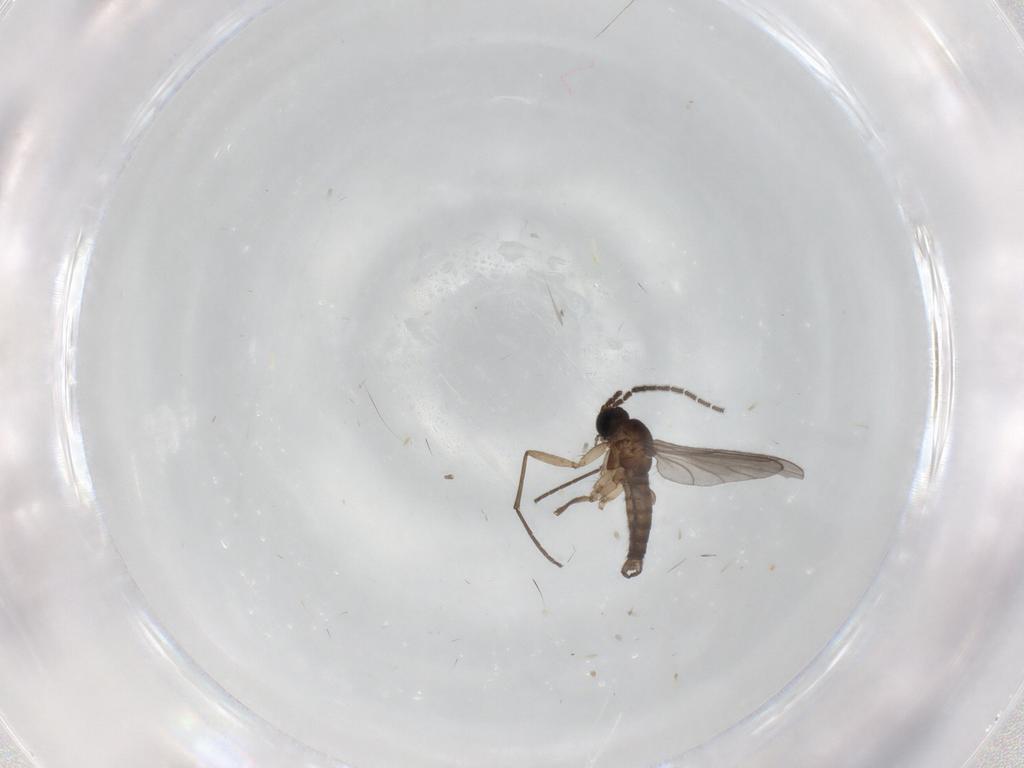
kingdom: Animalia
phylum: Arthropoda
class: Insecta
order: Diptera
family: Sciaridae
